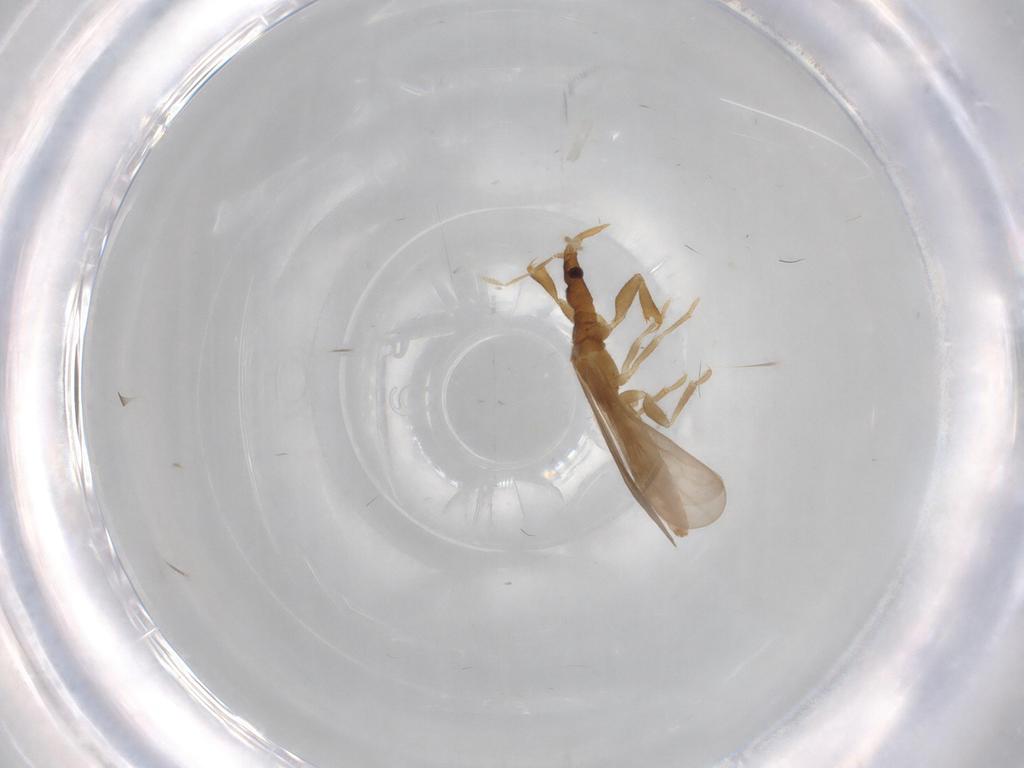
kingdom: Animalia
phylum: Arthropoda
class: Insecta
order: Hemiptera
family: Enicocephalidae
